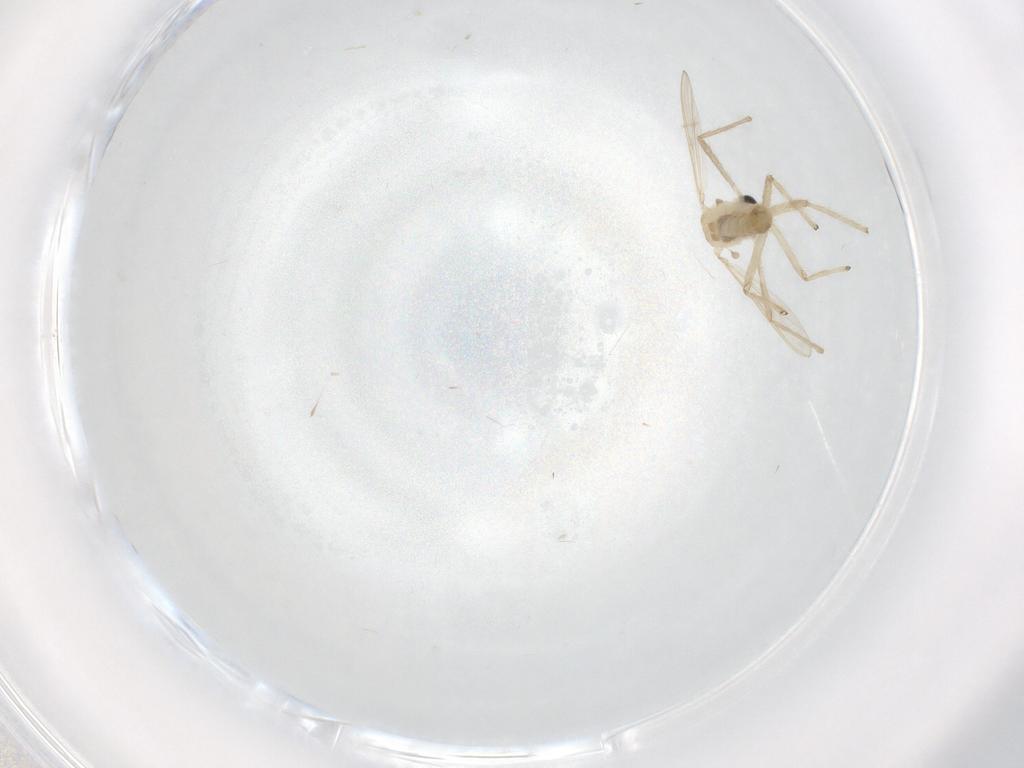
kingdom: Animalia
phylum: Arthropoda
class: Insecta
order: Diptera
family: Chironomidae
